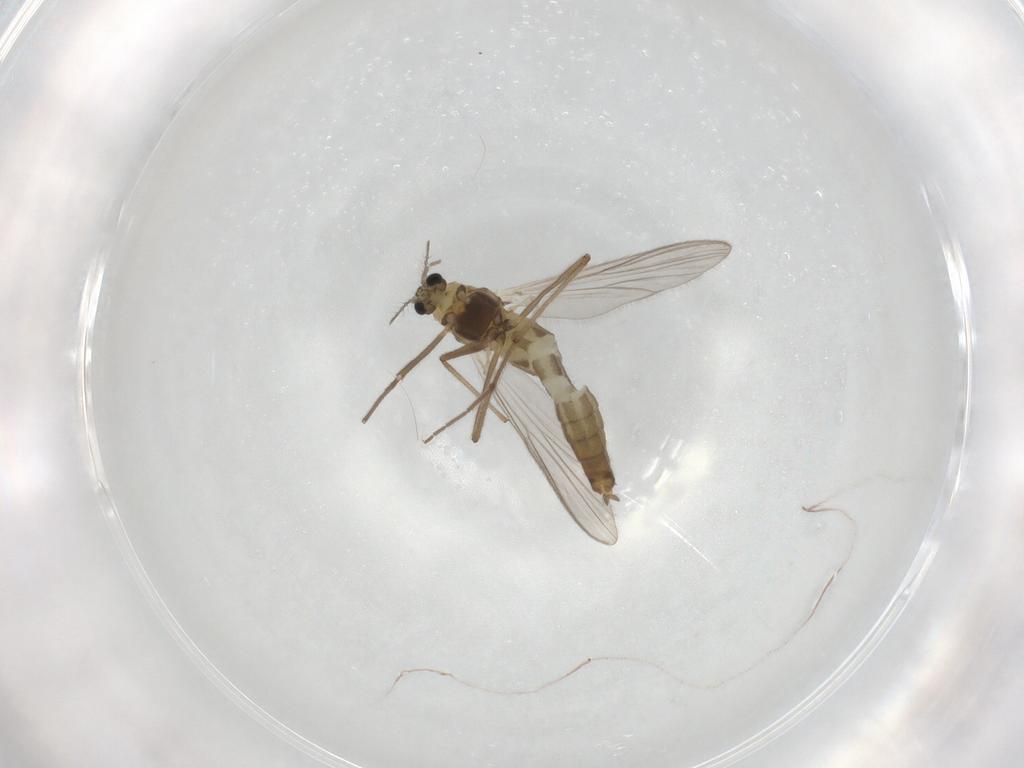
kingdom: Animalia
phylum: Arthropoda
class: Insecta
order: Diptera
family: Chironomidae
